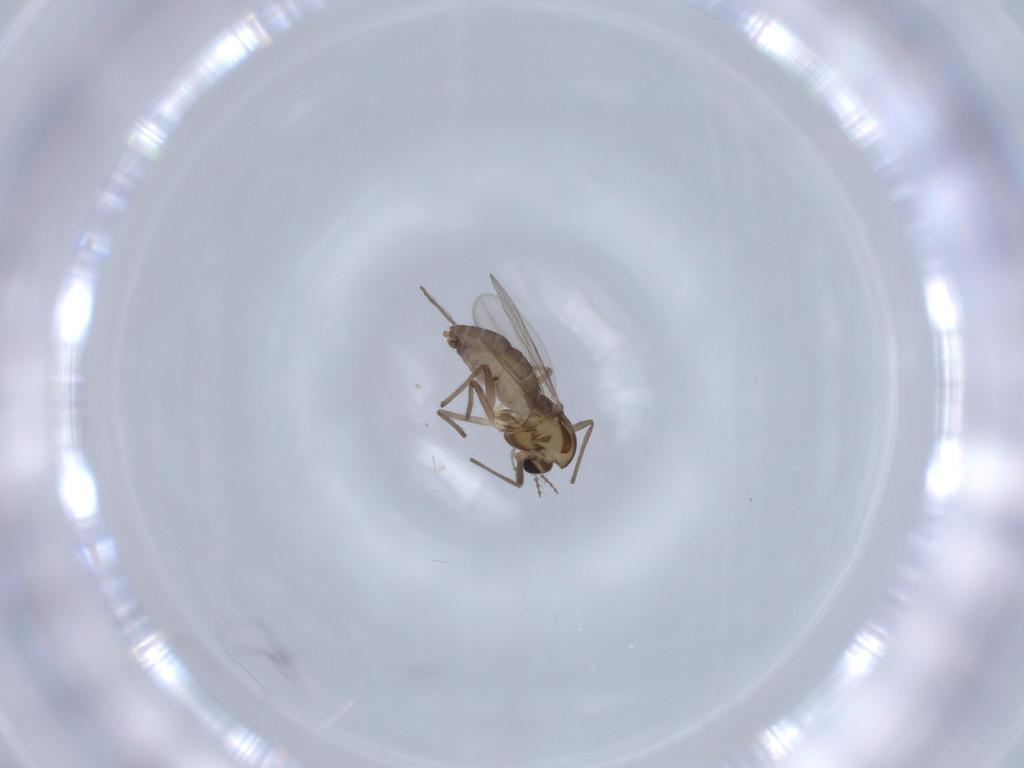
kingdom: Animalia
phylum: Arthropoda
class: Insecta
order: Diptera
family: Chironomidae
